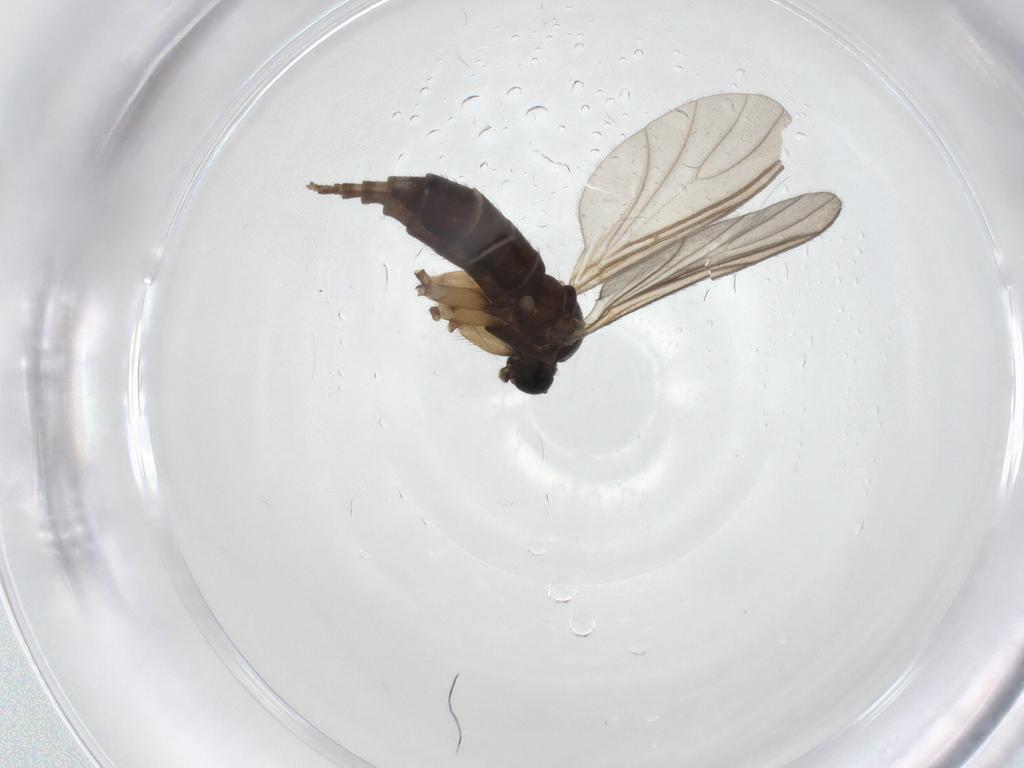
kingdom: Animalia
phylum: Arthropoda
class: Insecta
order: Diptera
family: Sciaridae
